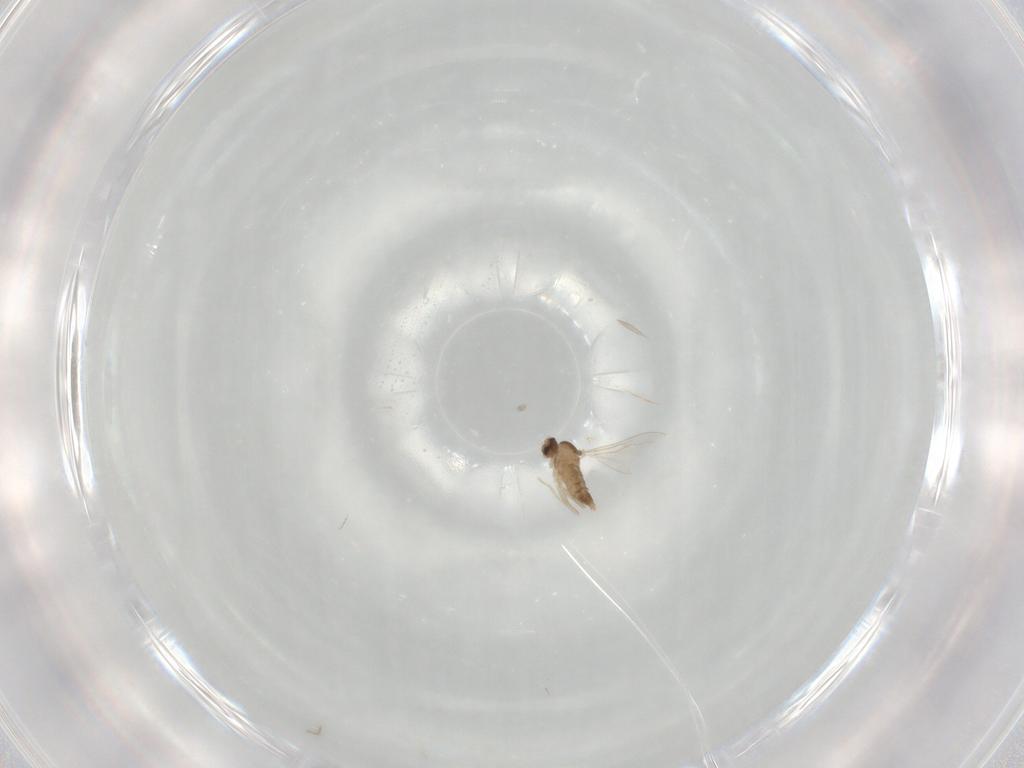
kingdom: Animalia
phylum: Arthropoda
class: Insecta
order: Diptera
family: Cecidomyiidae
